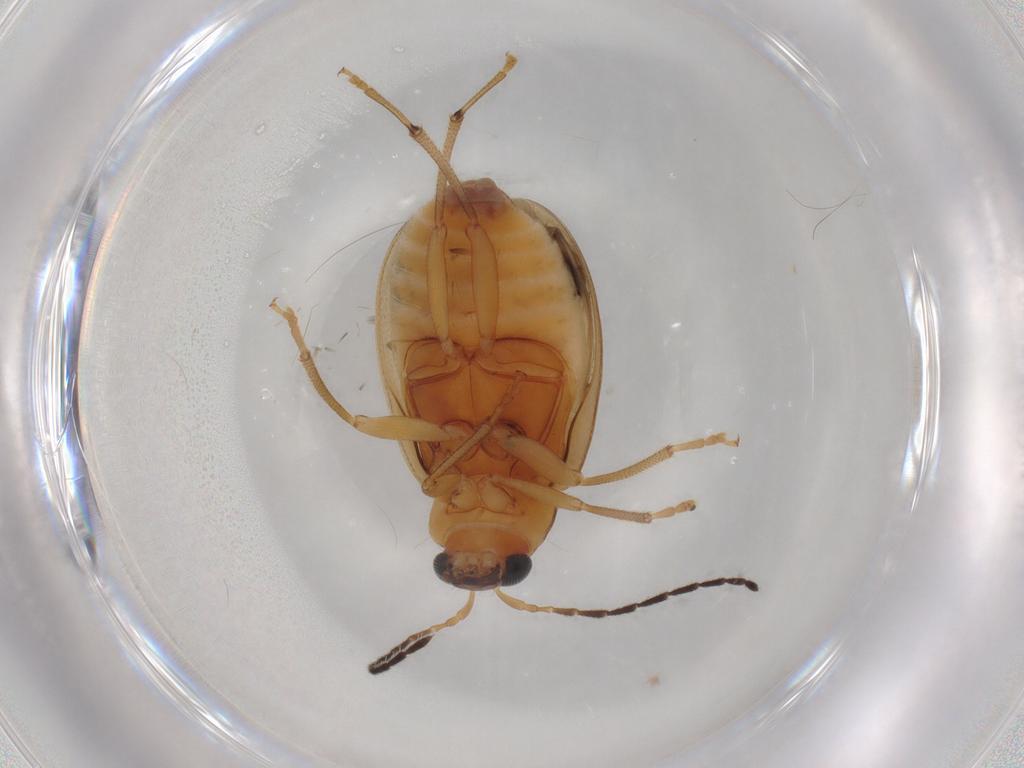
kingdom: Animalia
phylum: Arthropoda
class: Insecta
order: Coleoptera
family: Chrysomelidae
